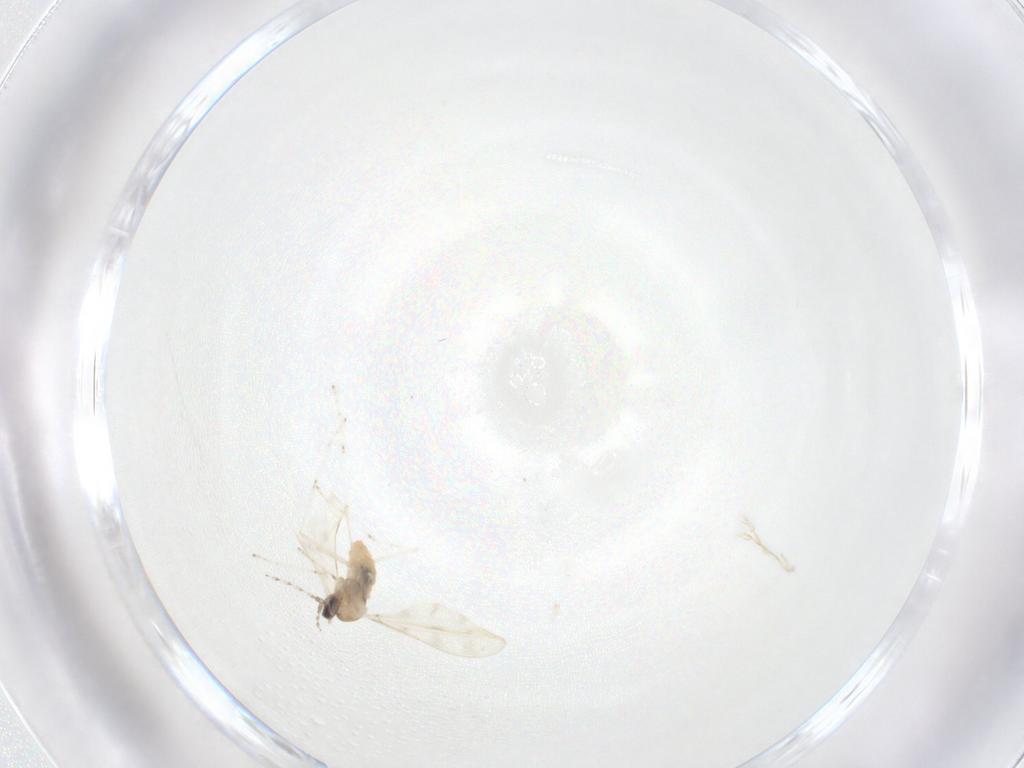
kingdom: Animalia
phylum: Arthropoda
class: Insecta
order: Diptera
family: Cecidomyiidae
